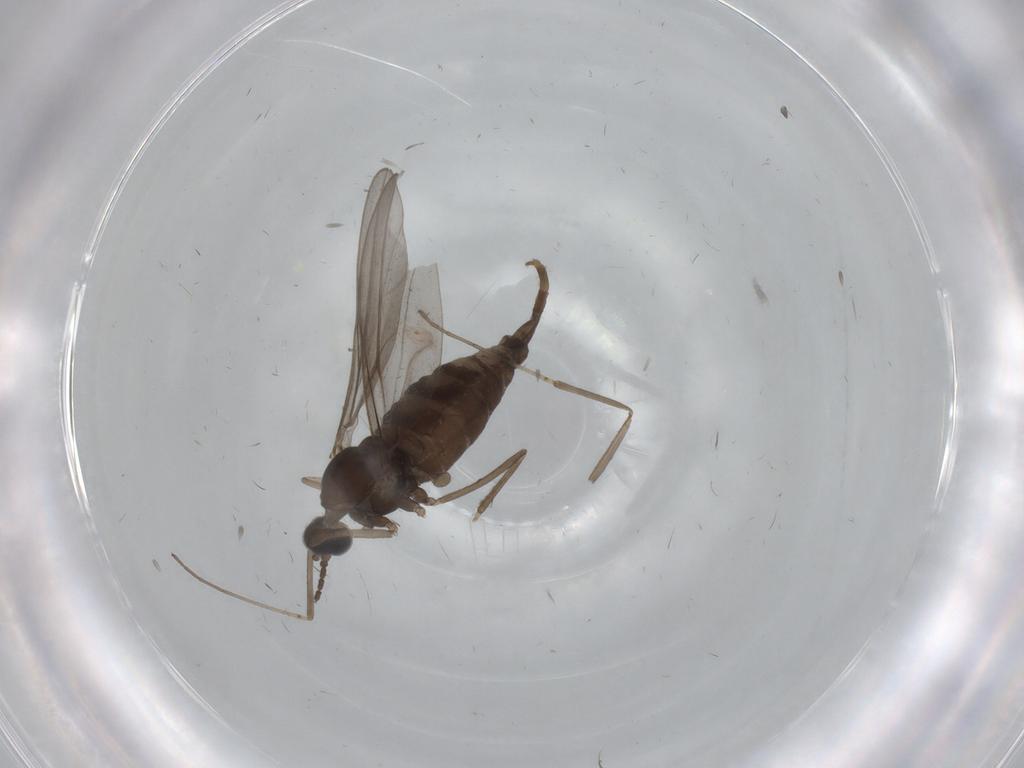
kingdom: Animalia
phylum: Arthropoda
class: Insecta
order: Diptera
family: Cecidomyiidae
